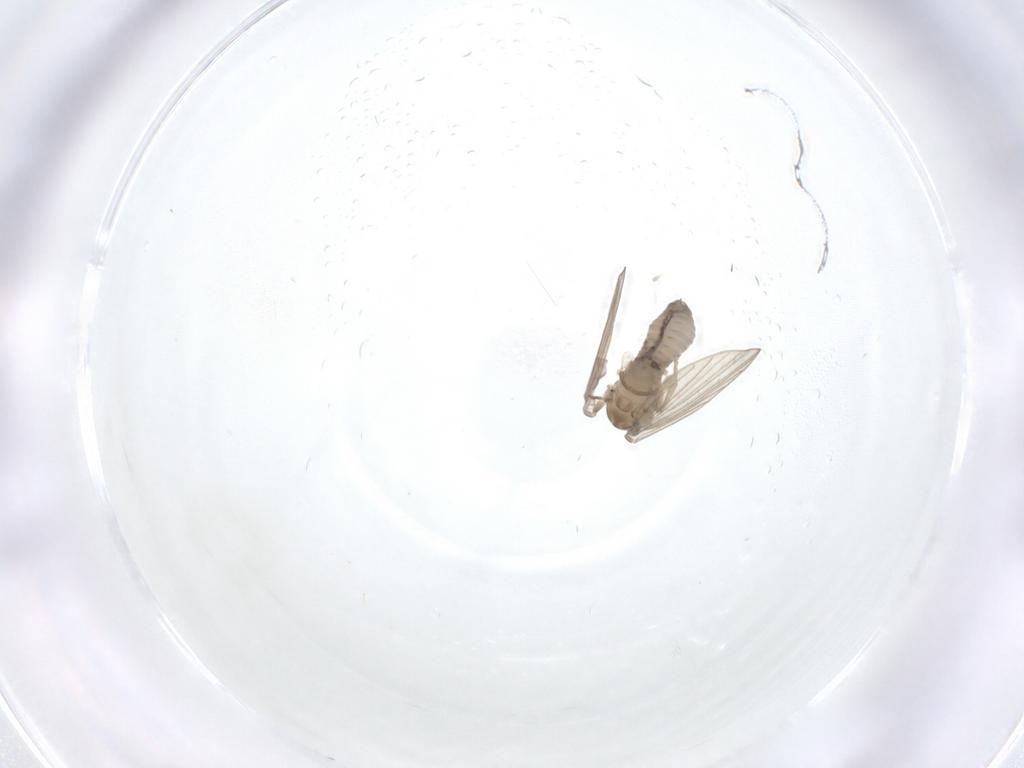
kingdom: Animalia
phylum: Arthropoda
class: Insecta
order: Diptera
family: Psychodidae
